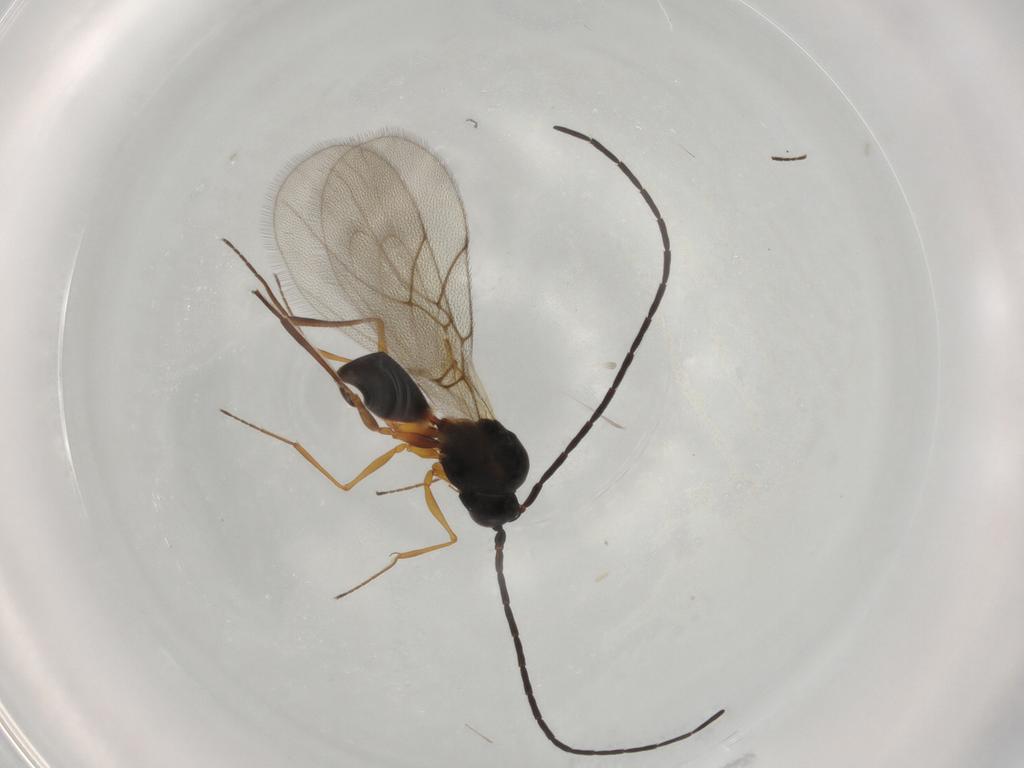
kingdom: Animalia
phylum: Arthropoda
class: Insecta
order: Hymenoptera
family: Figitidae
